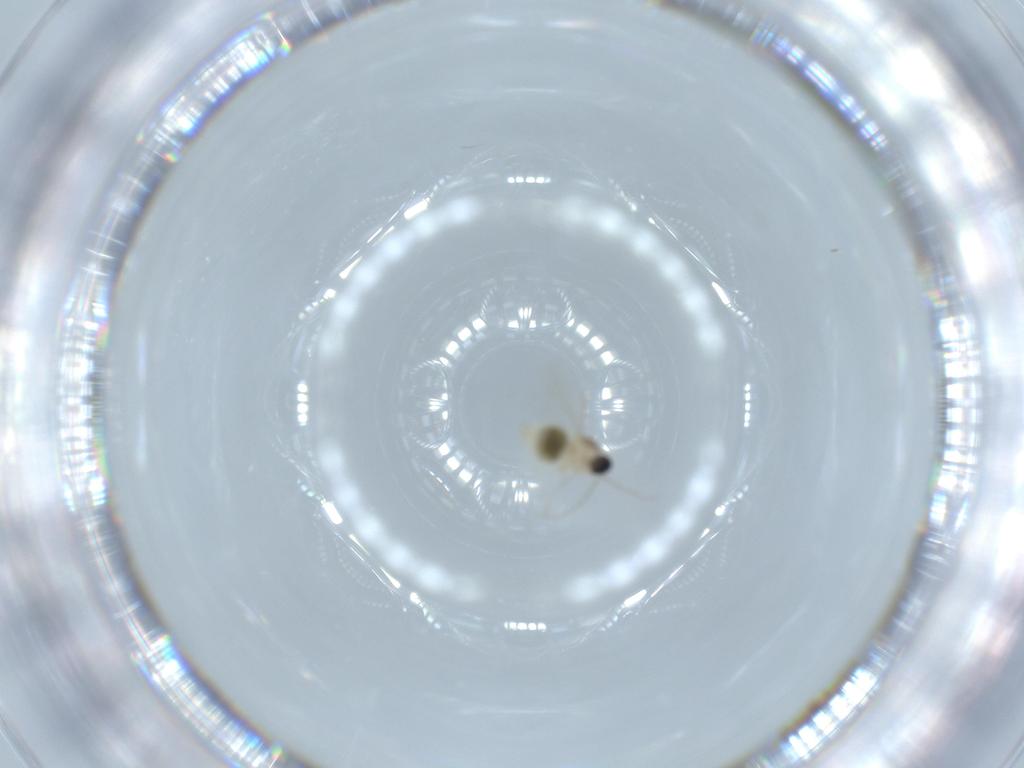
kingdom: Animalia
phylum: Arthropoda
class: Insecta
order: Diptera
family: Cecidomyiidae
